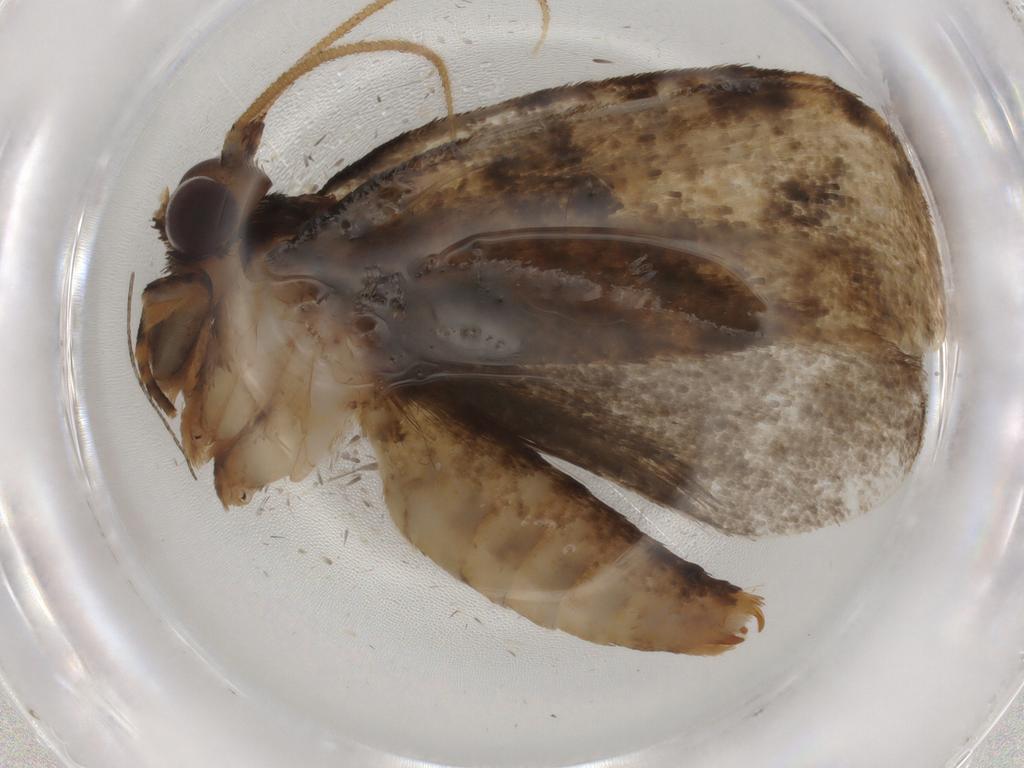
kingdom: Animalia
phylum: Arthropoda
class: Insecta
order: Lepidoptera
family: Tineidae
